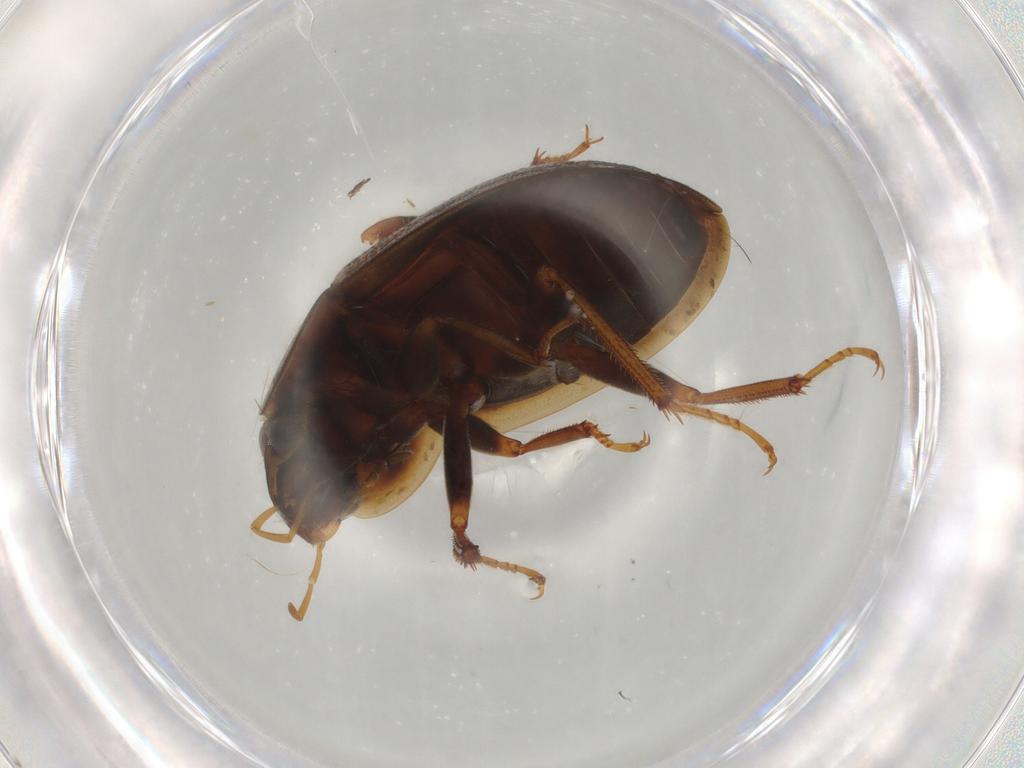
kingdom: Animalia
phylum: Arthropoda
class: Insecta
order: Coleoptera
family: Hydrophilidae
